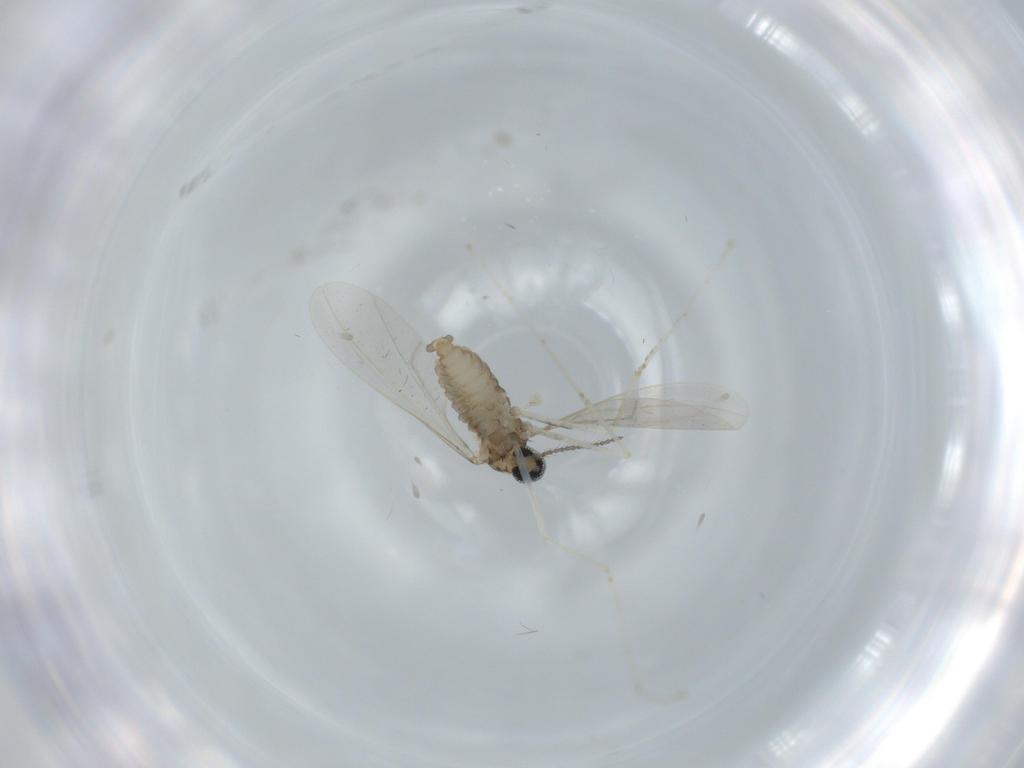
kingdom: Animalia
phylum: Arthropoda
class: Insecta
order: Diptera
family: Cecidomyiidae
